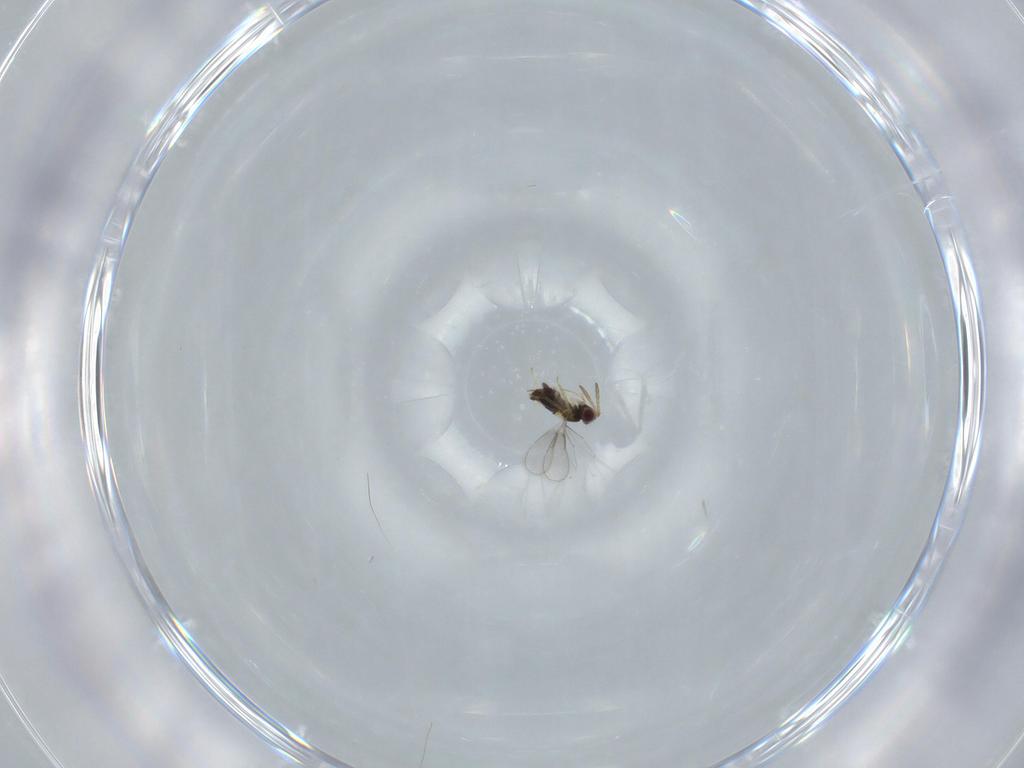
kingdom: Animalia
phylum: Arthropoda
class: Insecta
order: Hymenoptera
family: Aphelinidae
